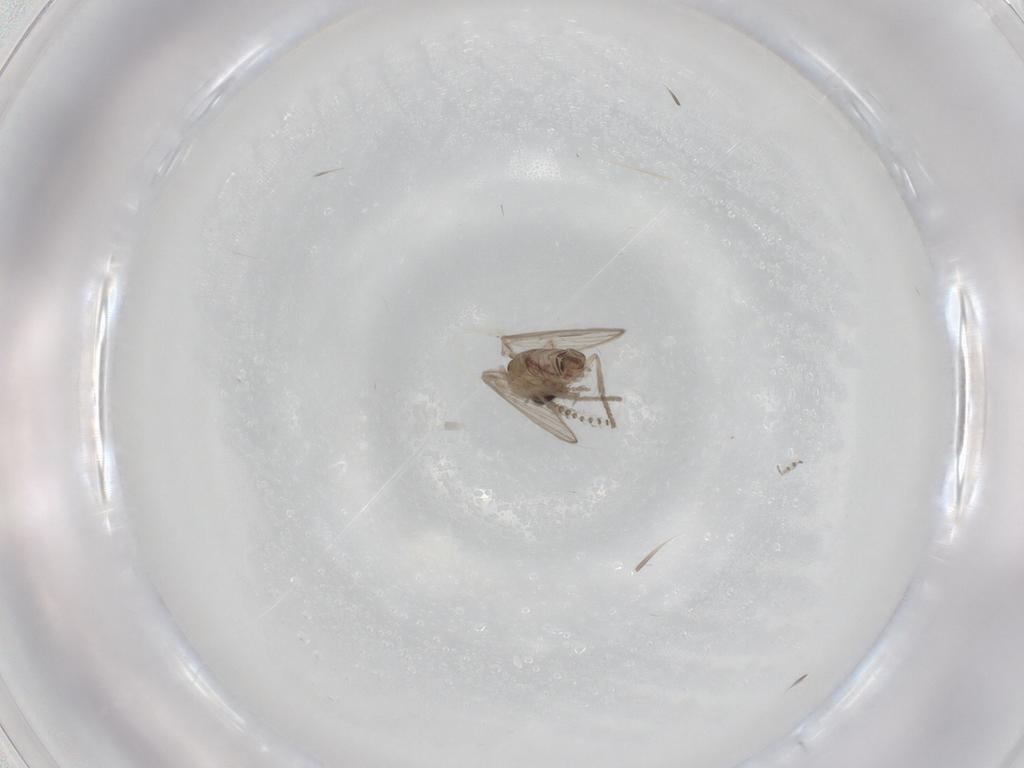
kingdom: Animalia
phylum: Arthropoda
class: Insecta
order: Diptera
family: Psychodidae
